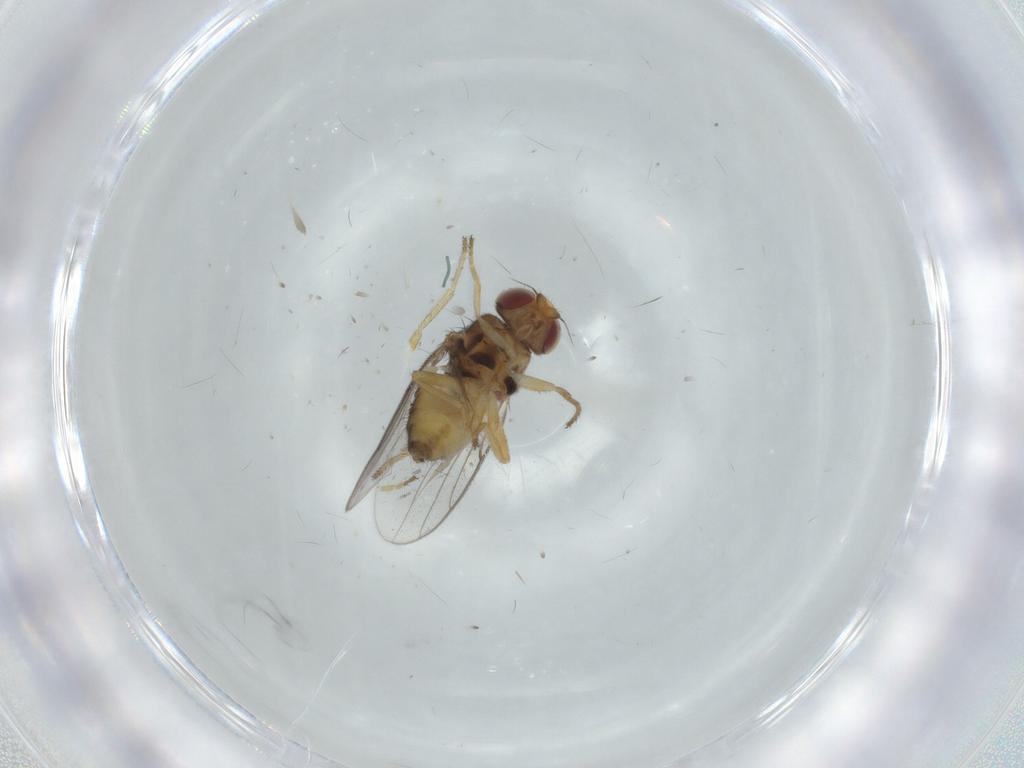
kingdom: Animalia
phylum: Arthropoda
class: Insecta
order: Diptera
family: Chloropidae
